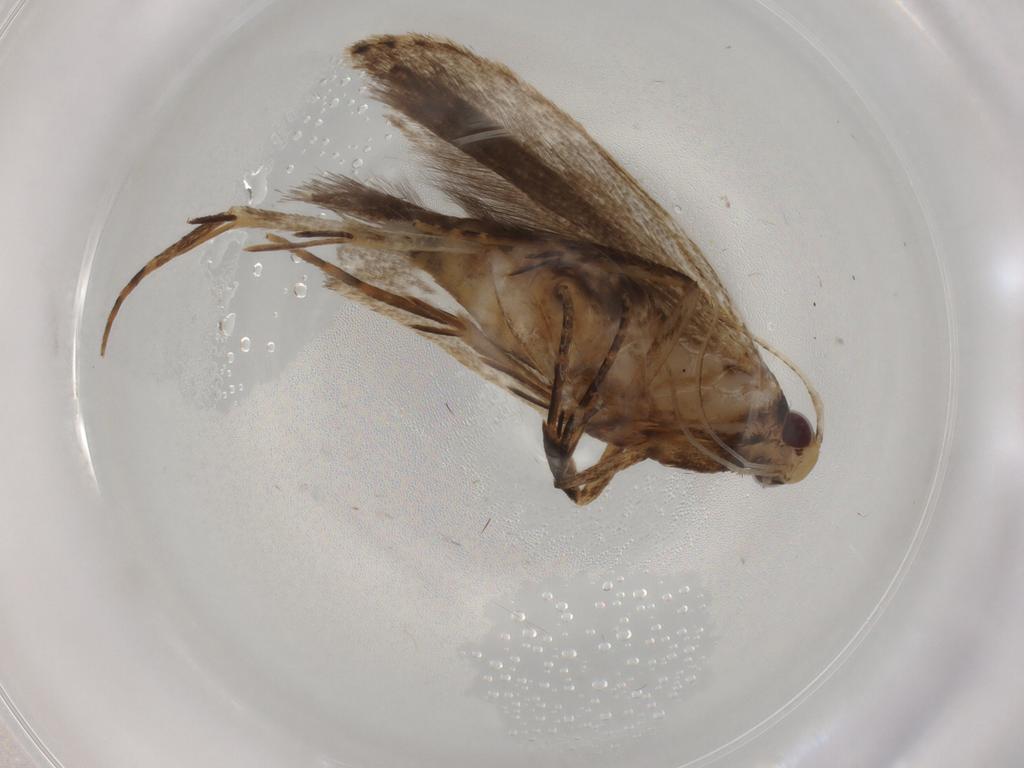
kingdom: Animalia
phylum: Arthropoda
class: Insecta
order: Lepidoptera
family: Gelechiidae
